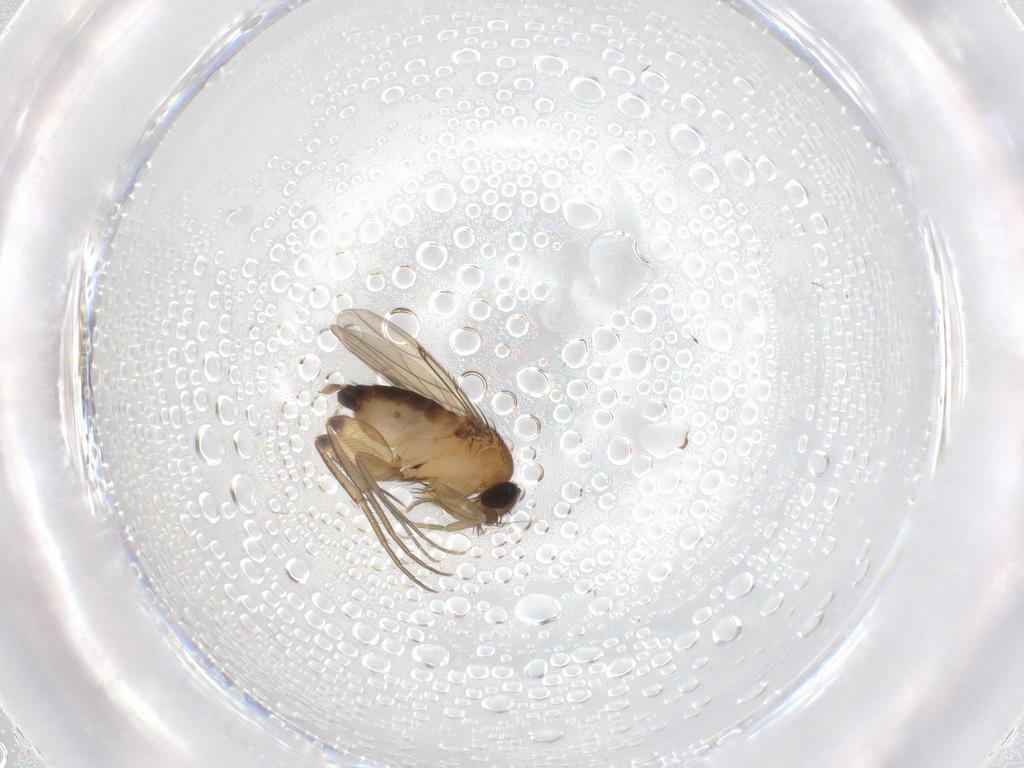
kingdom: Animalia
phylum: Arthropoda
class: Insecta
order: Diptera
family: Phoridae
